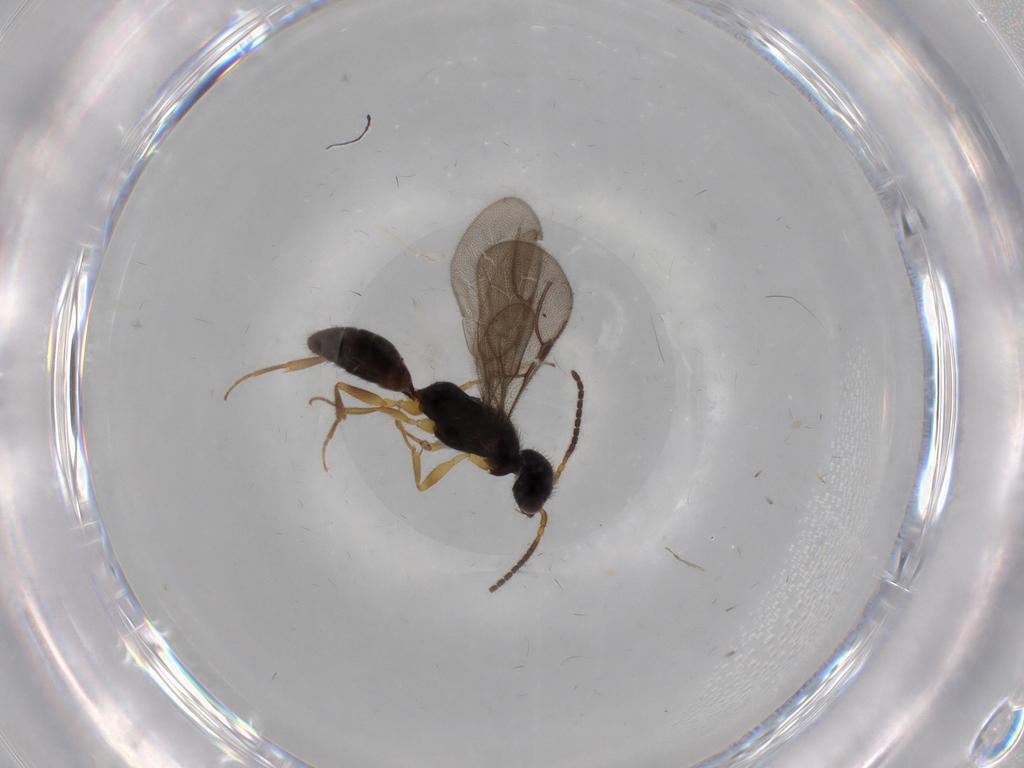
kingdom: Animalia
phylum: Arthropoda
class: Insecta
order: Hymenoptera
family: Bethylidae
